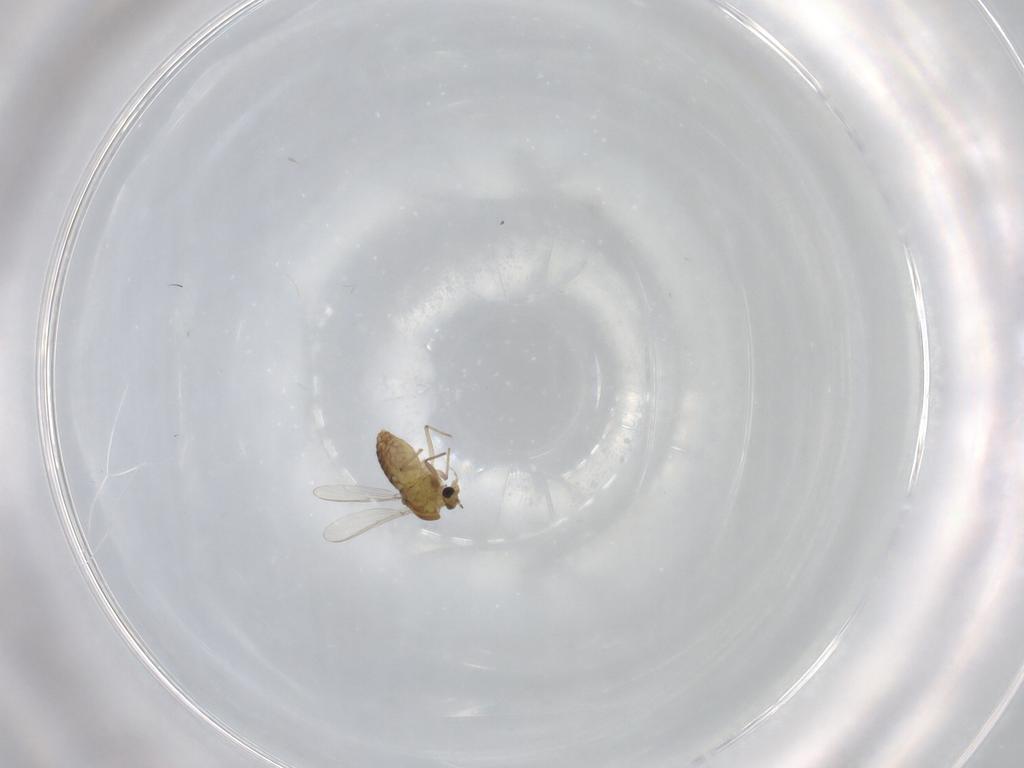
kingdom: Animalia
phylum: Arthropoda
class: Insecta
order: Diptera
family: Chironomidae
